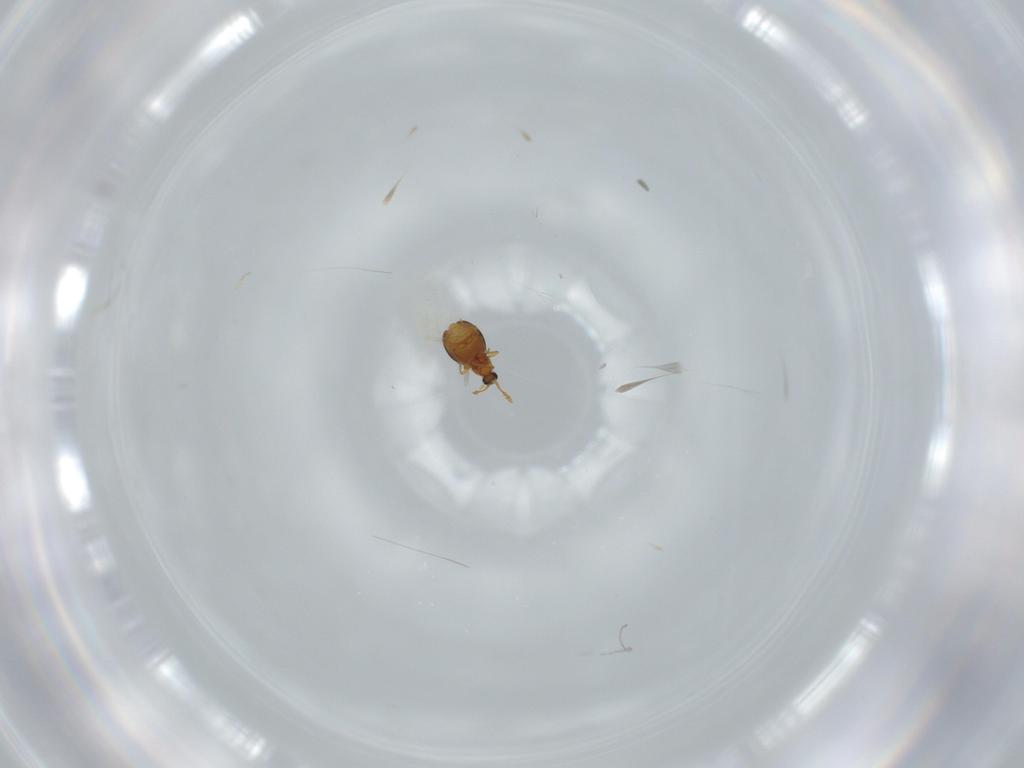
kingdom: Animalia
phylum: Arthropoda
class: Insecta
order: Coleoptera
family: Staphylinidae
